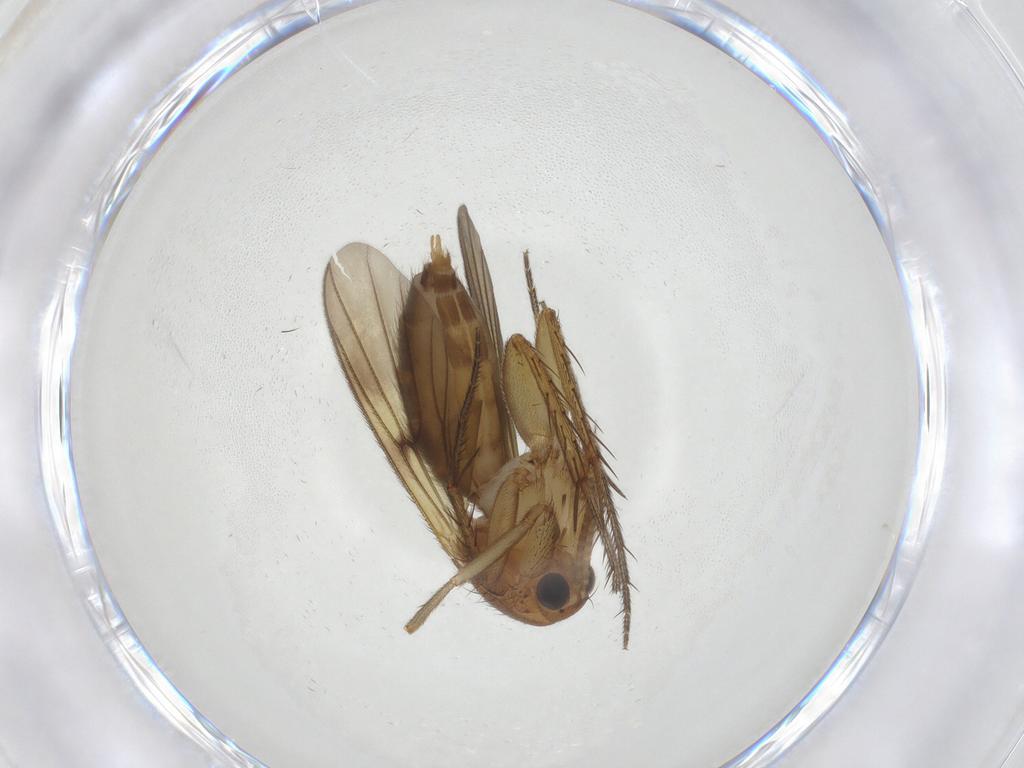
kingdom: Animalia
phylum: Arthropoda
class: Insecta
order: Diptera
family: Sciaridae
